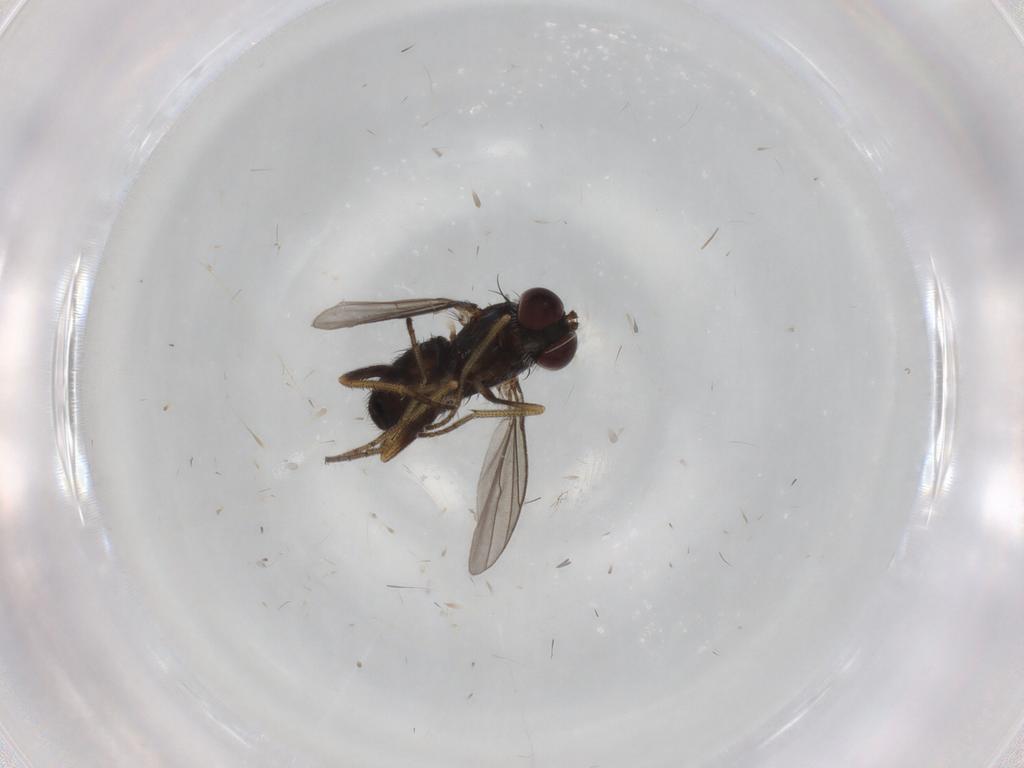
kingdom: Animalia
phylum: Arthropoda
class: Insecta
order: Diptera
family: Dolichopodidae
